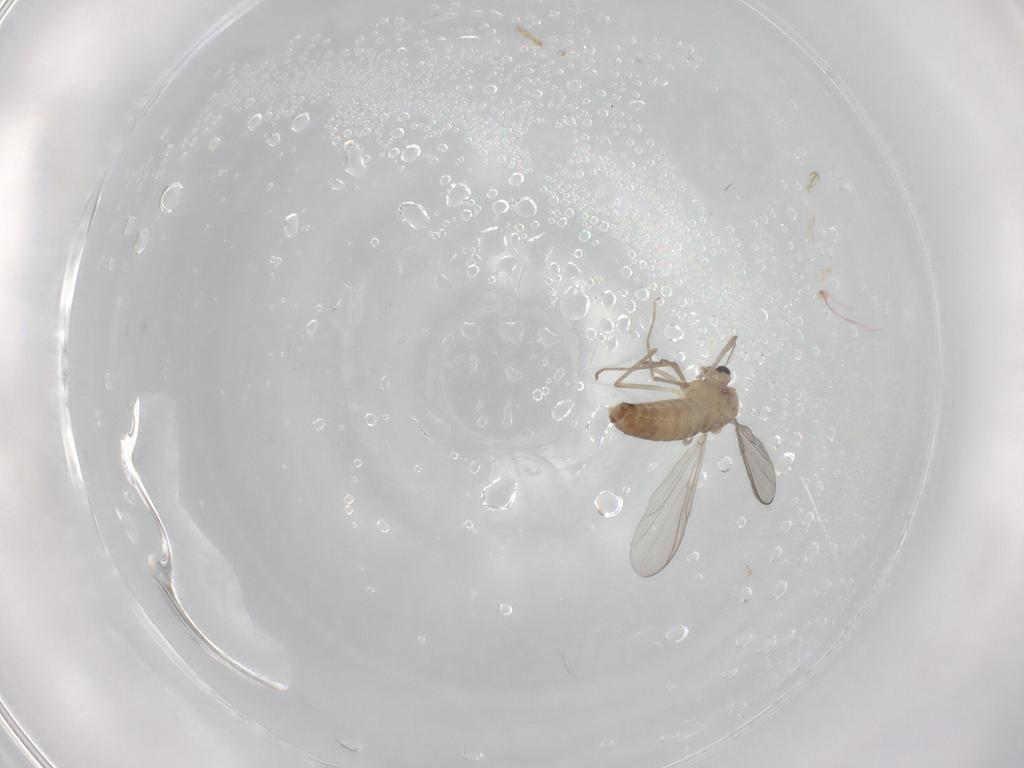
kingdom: Animalia
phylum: Arthropoda
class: Insecta
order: Diptera
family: Chironomidae
